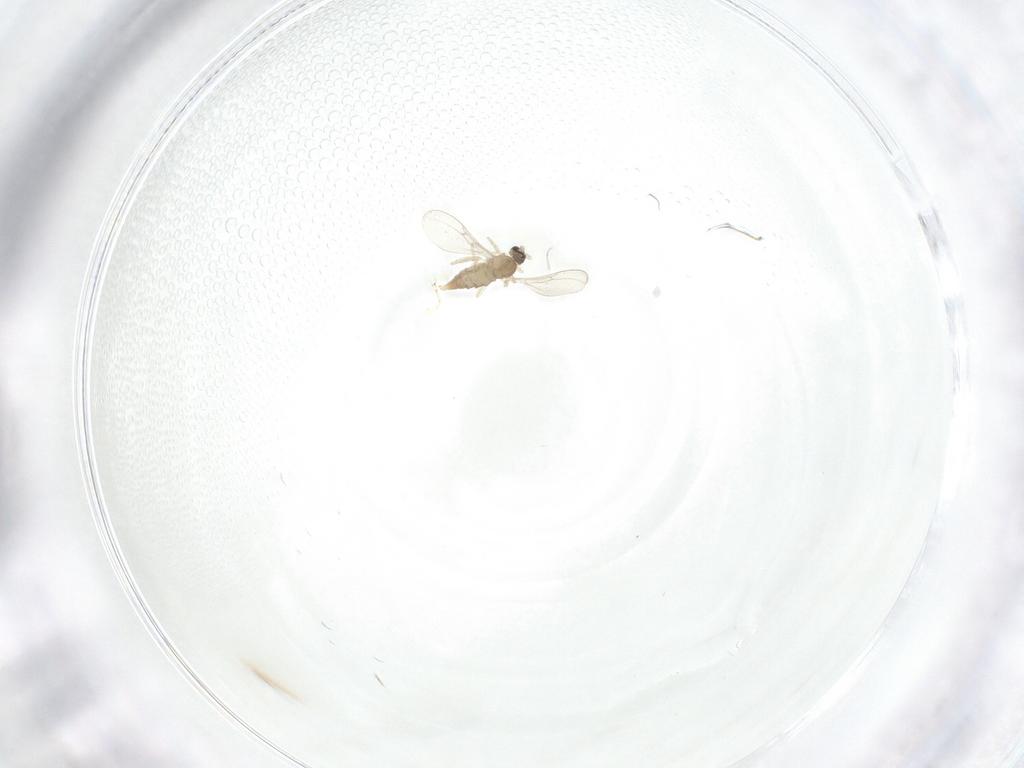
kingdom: Animalia
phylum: Arthropoda
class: Insecta
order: Diptera
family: Cecidomyiidae
